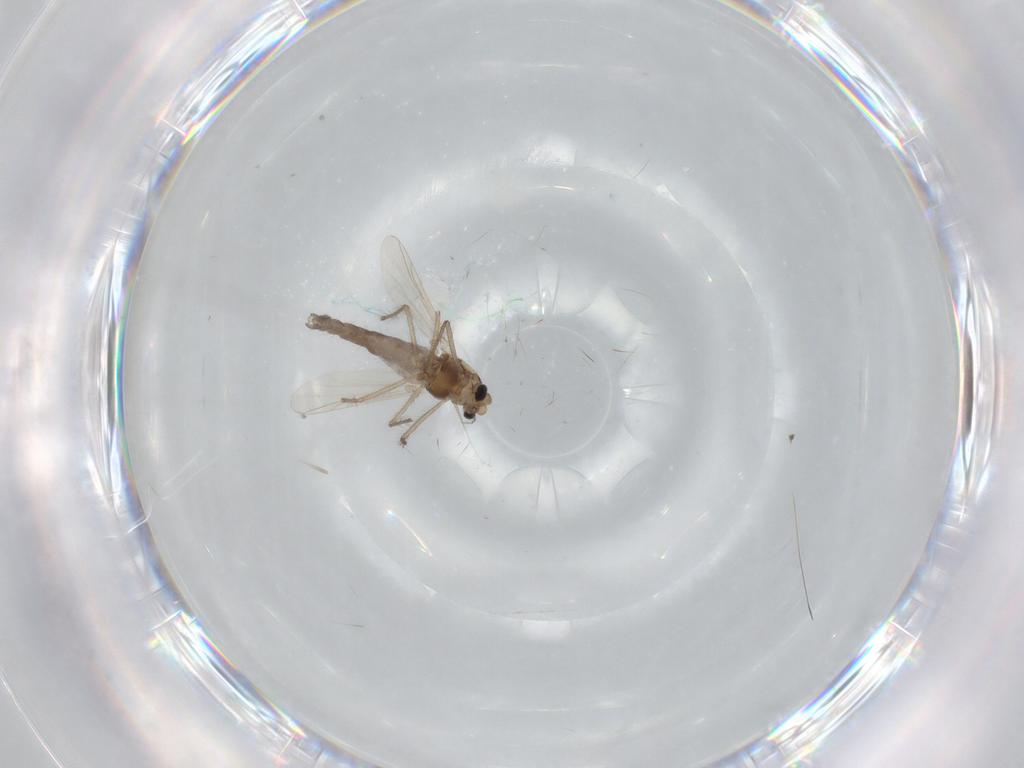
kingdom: Animalia
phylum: Arthropoda
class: Insecta
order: Diptera
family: Chironomidae
